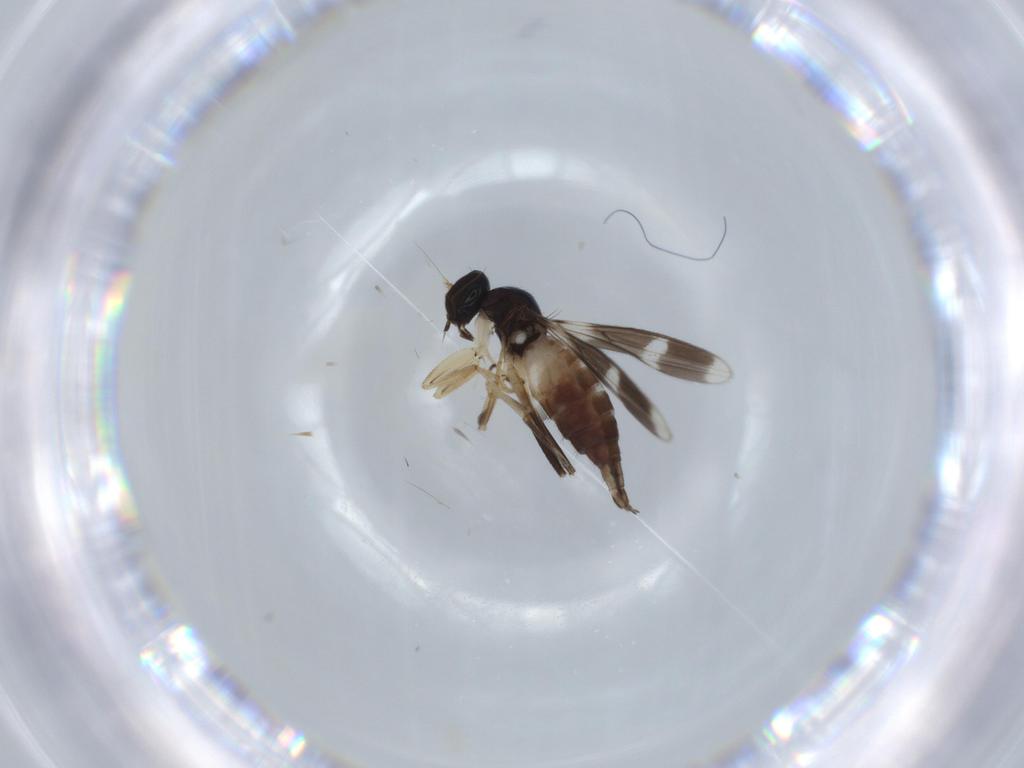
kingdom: Animalia
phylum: Arthropoda
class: Insecta
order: Diptera
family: Hybotidae
